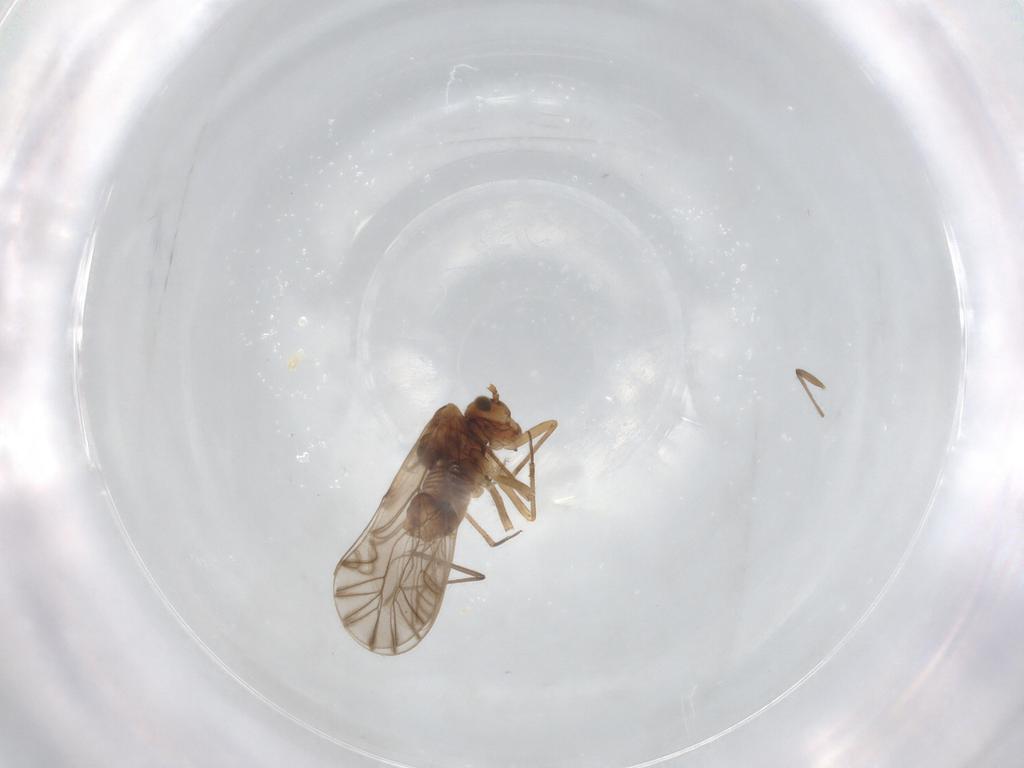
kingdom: Animalia
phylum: Arthropoda
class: Insecta
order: Psocodea
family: Lachesillidae
